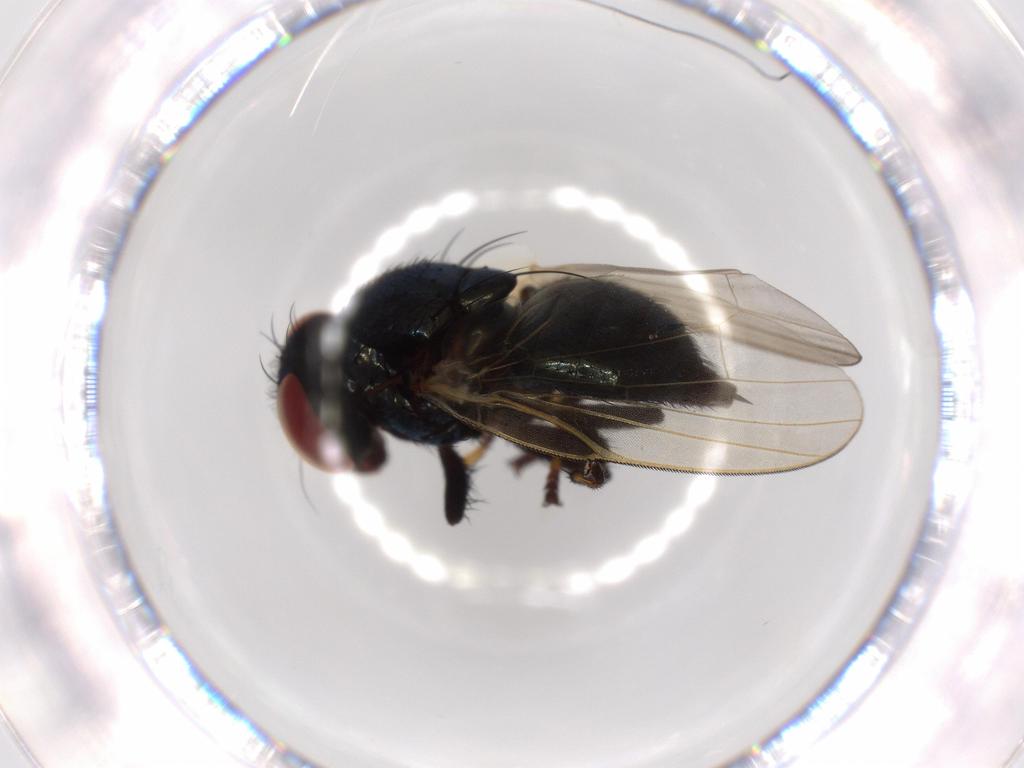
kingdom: Animalia
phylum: Arthropoda
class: Insecta
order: Diptera
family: Lonchaeidae
